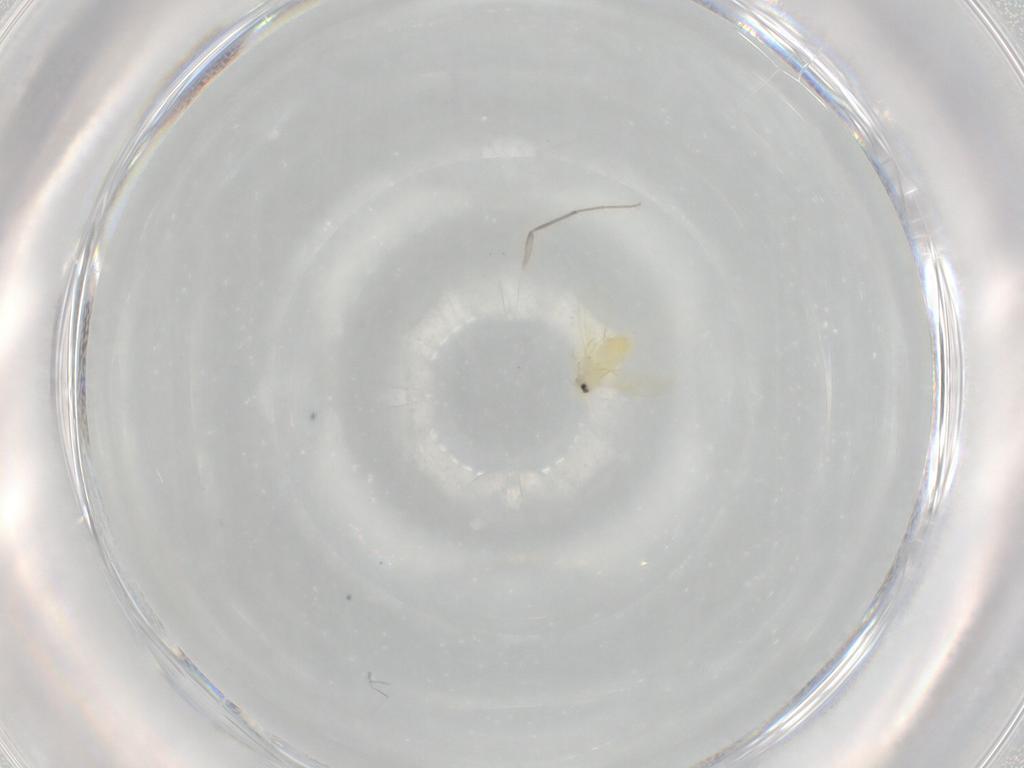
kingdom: Animalia
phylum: Arthropoda
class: Insecta
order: Hemiptera
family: Aleyrodidae
